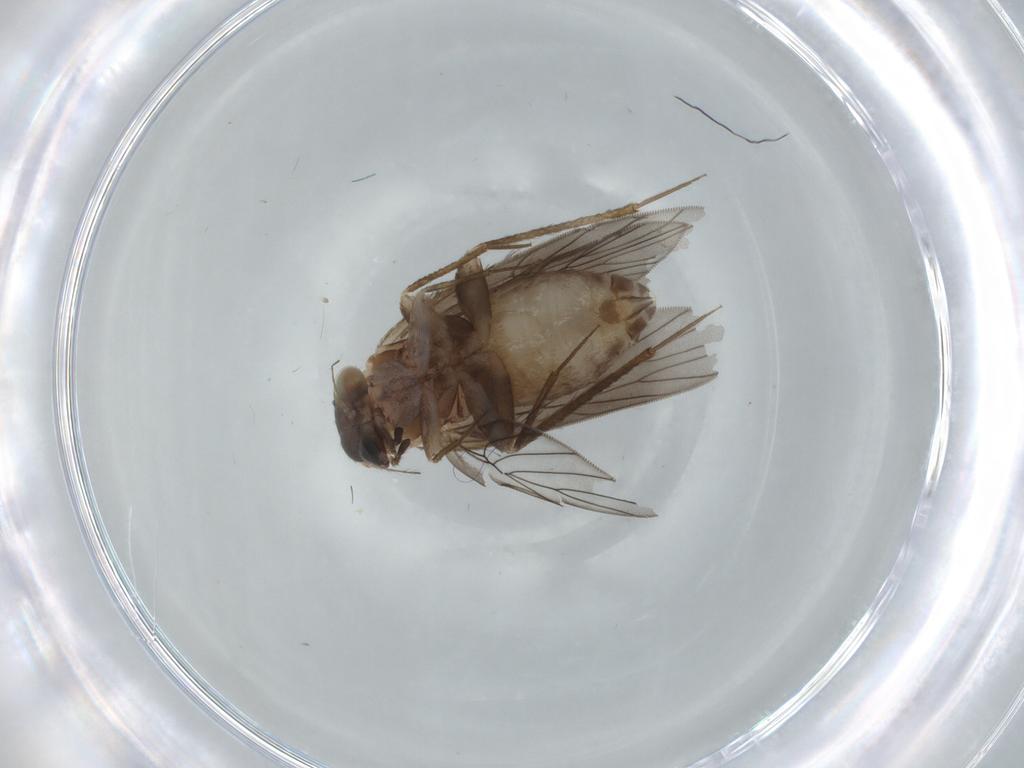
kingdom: Animalia
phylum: Arthropoda
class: Insecta
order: Psocodea
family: Lepidopsocidae
